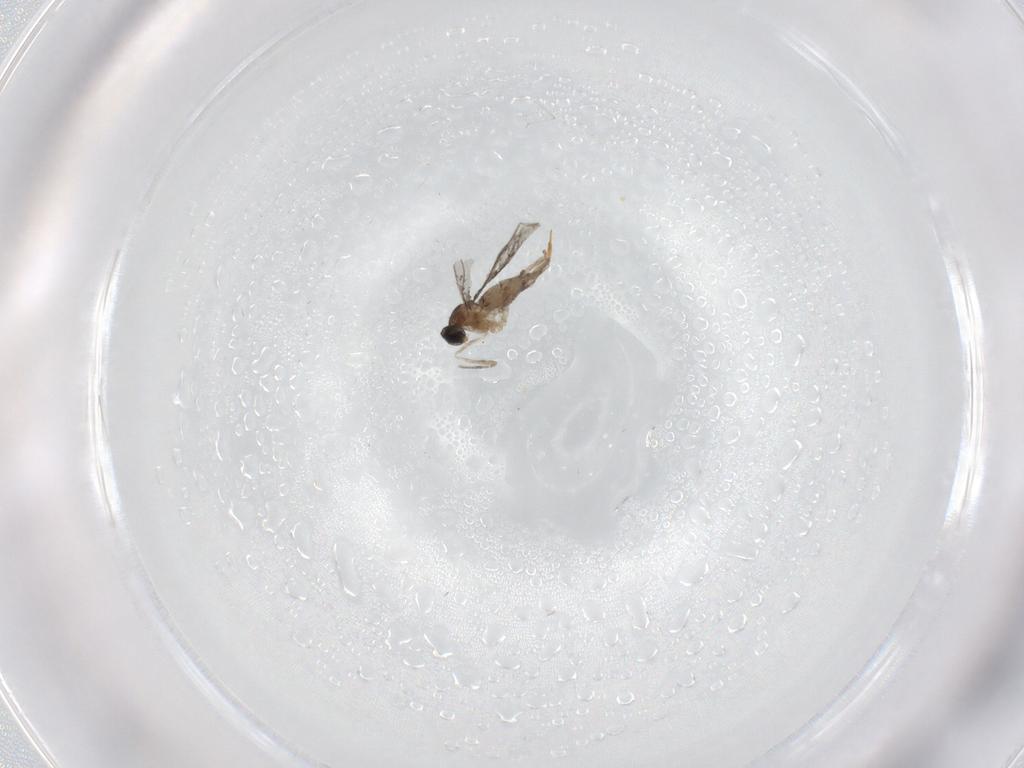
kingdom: Animalia
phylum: Arthropoda
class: Insecta
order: Diptera
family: Cecidomyiidae
